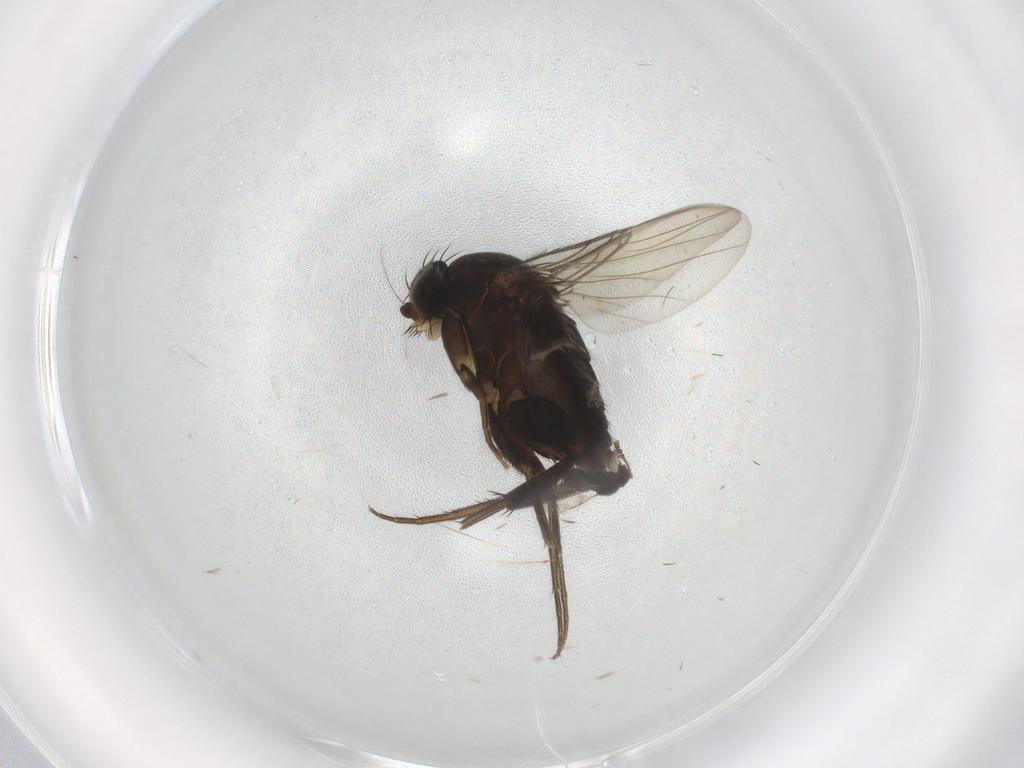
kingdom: Animalia
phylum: Arthropoda
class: Insecta
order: Diptera
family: Phoridae
